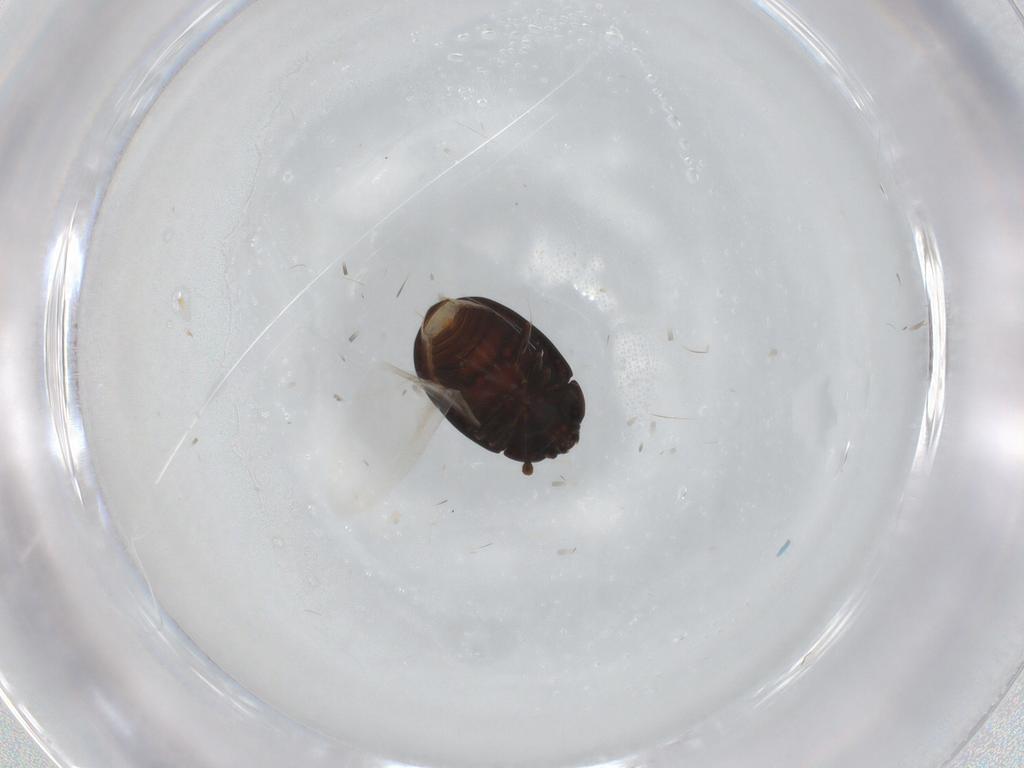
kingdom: Animalia
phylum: Arthropoda
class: Insecta
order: Coleoptera
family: Discolomatidae
